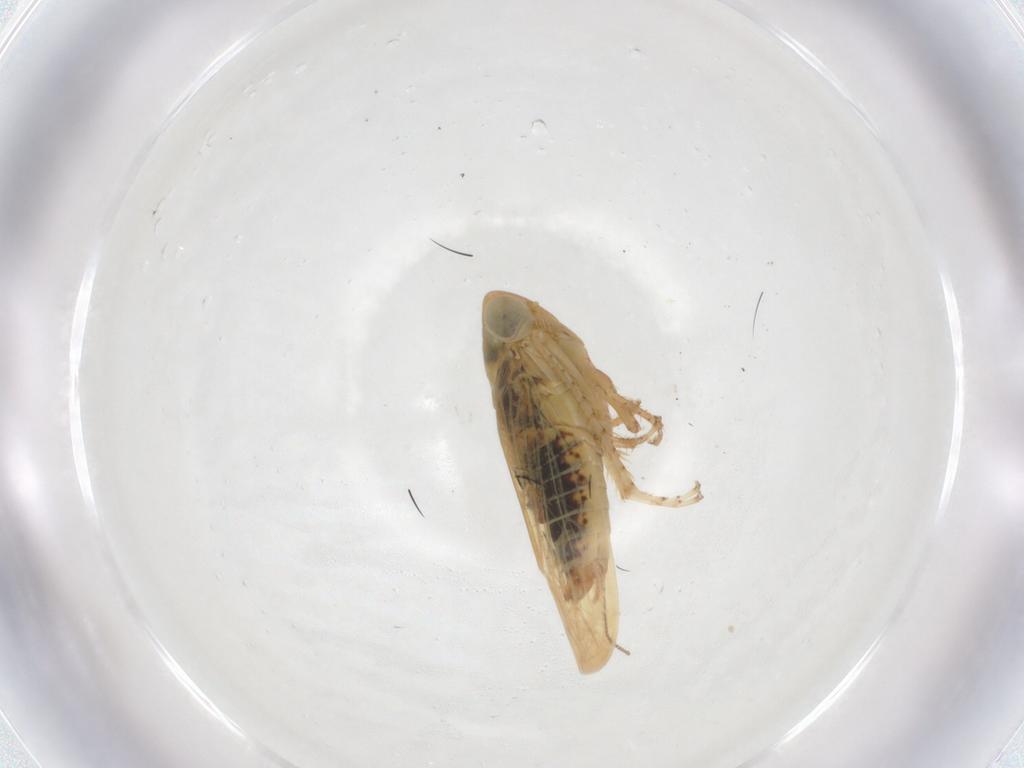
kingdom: Animalia
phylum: Arthropoda
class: Insecta
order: Hemiptera
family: Cicadellidae
